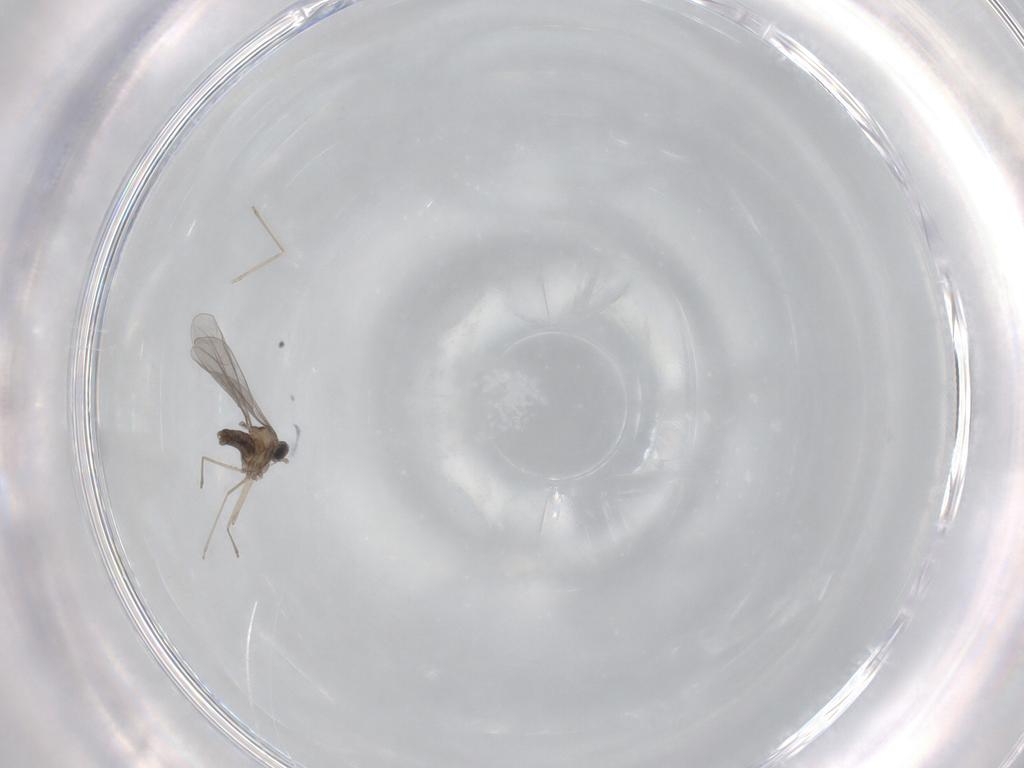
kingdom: Animalia
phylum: Arthropoda
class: Insecta
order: Diptera
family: Cecidomyiidae
